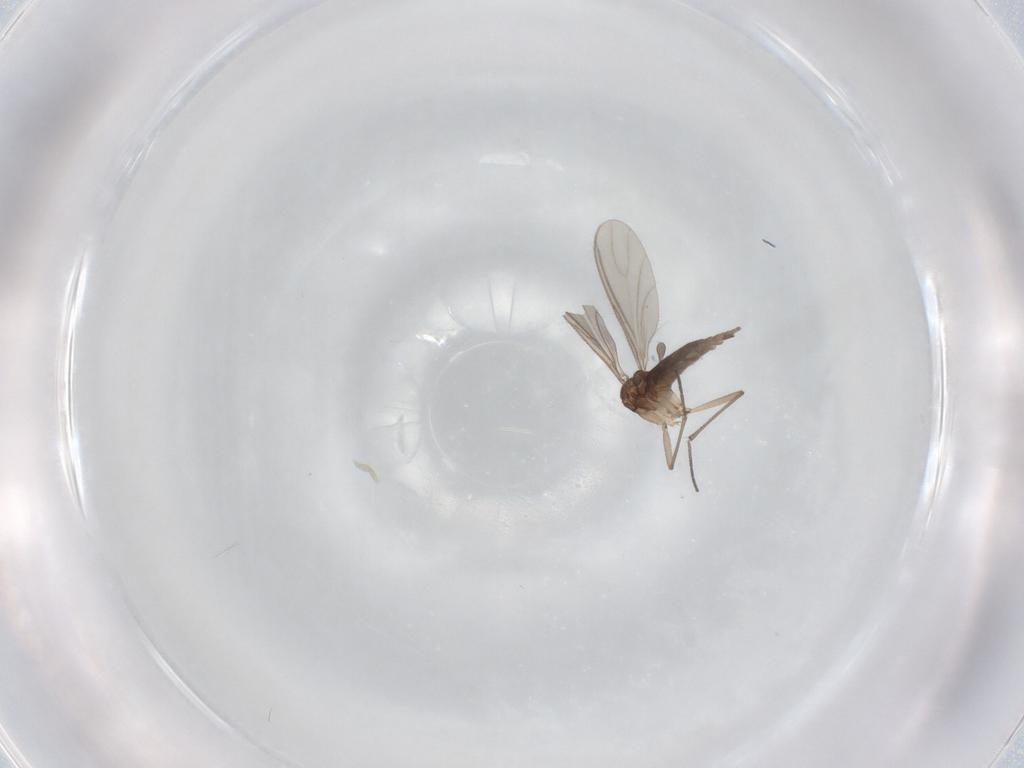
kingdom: Animalia
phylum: Arthropoda
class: Insecta
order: Diptera
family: Sciaridae
